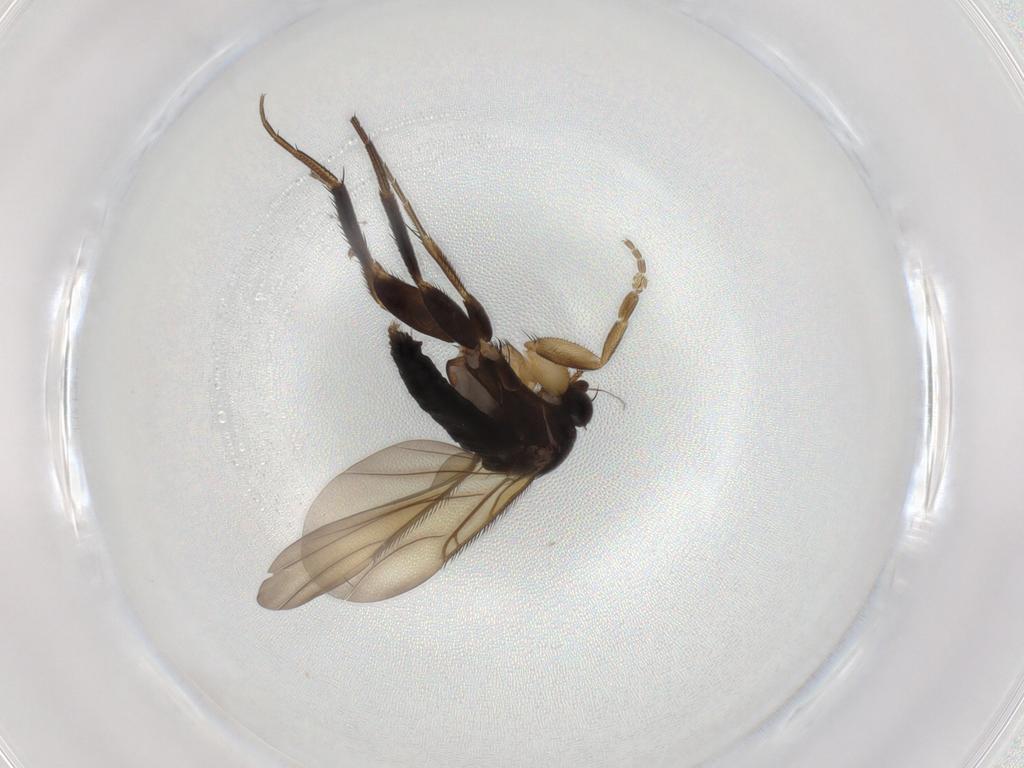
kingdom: Animalia
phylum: Arthropoda
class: Insecta
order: Diptera
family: Phoridae
